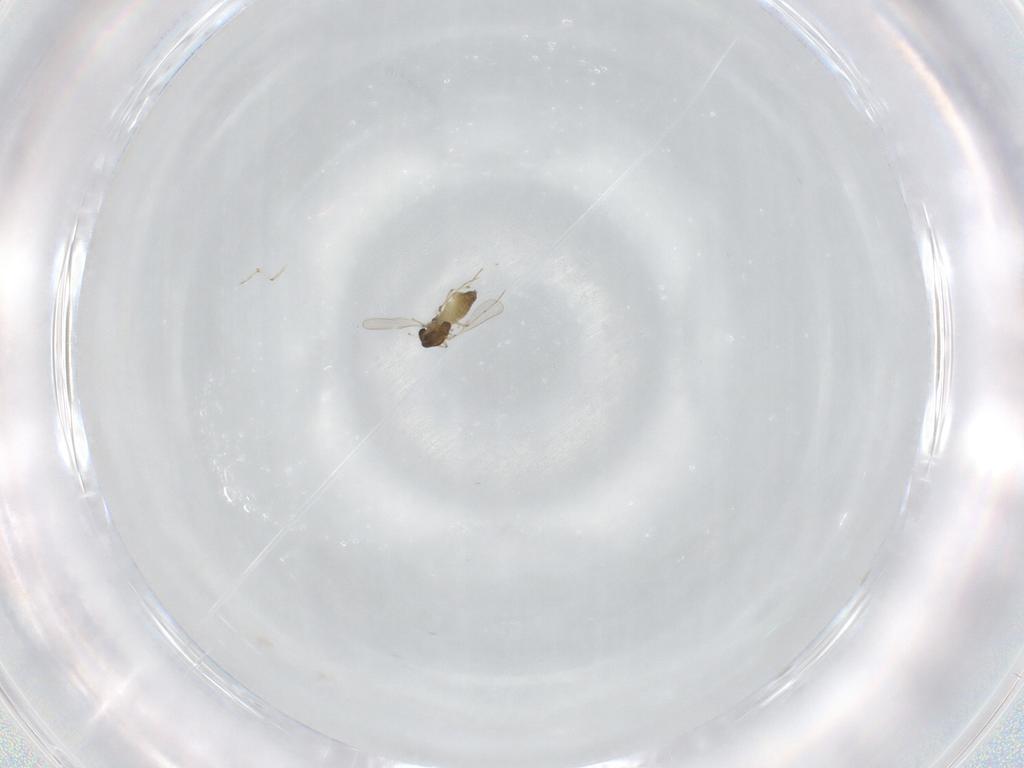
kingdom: Animalia
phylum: Arthropoda
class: Insecta
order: Diptera
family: Chironomidae
